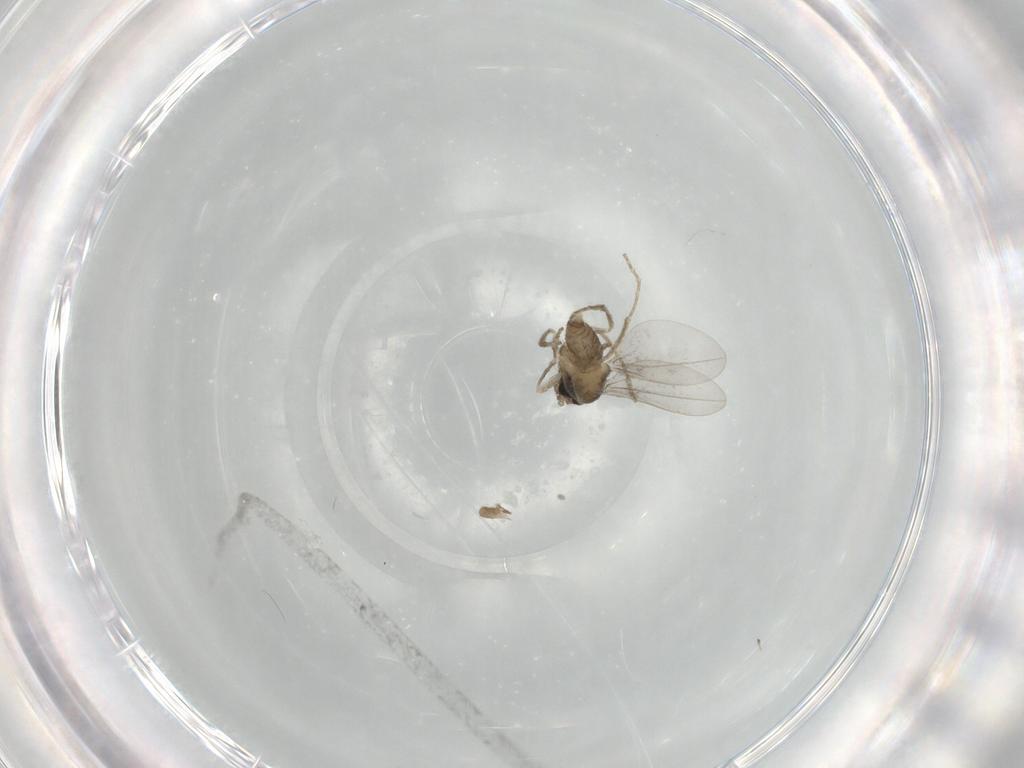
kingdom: Animalia
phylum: Arthropoda
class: Insecta
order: Diptera
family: Cecidomyiidae
